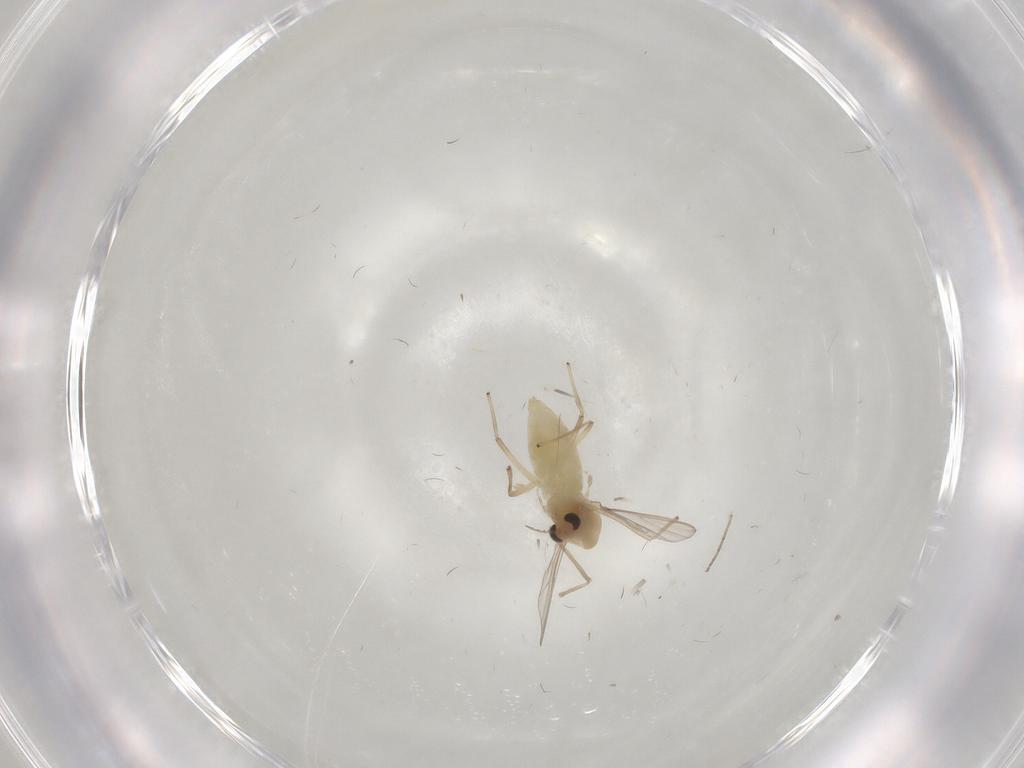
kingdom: Animalia
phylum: Arthropoda
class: Insecta
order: Diptera
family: Chironomidae
